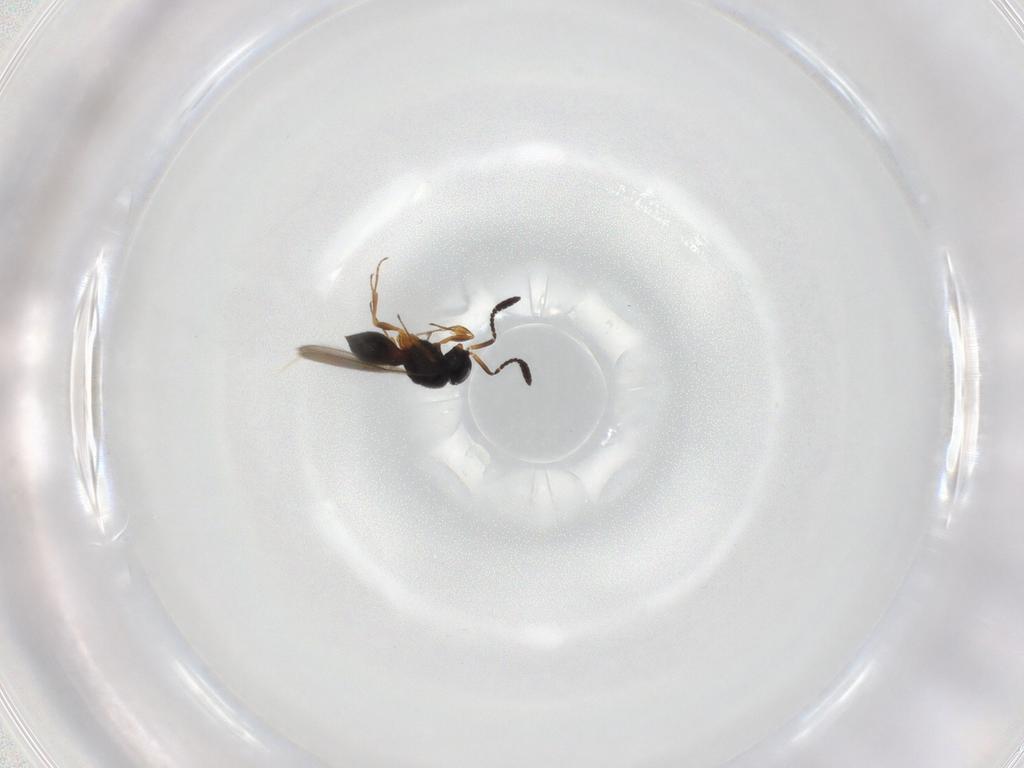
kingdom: Animalia
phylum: Arthropoda
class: Insecta
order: Hymenoptera
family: Scelionidae
